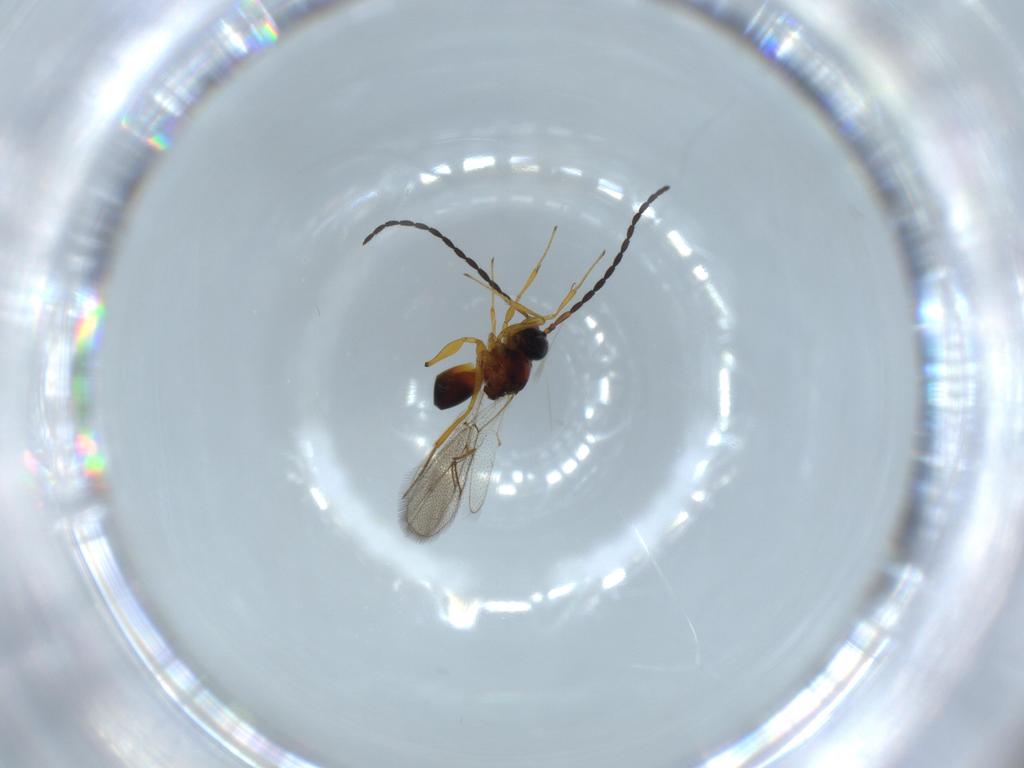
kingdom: Animalia
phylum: Arthropoda
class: Insecta
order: Hymenoptera
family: Figitidae
